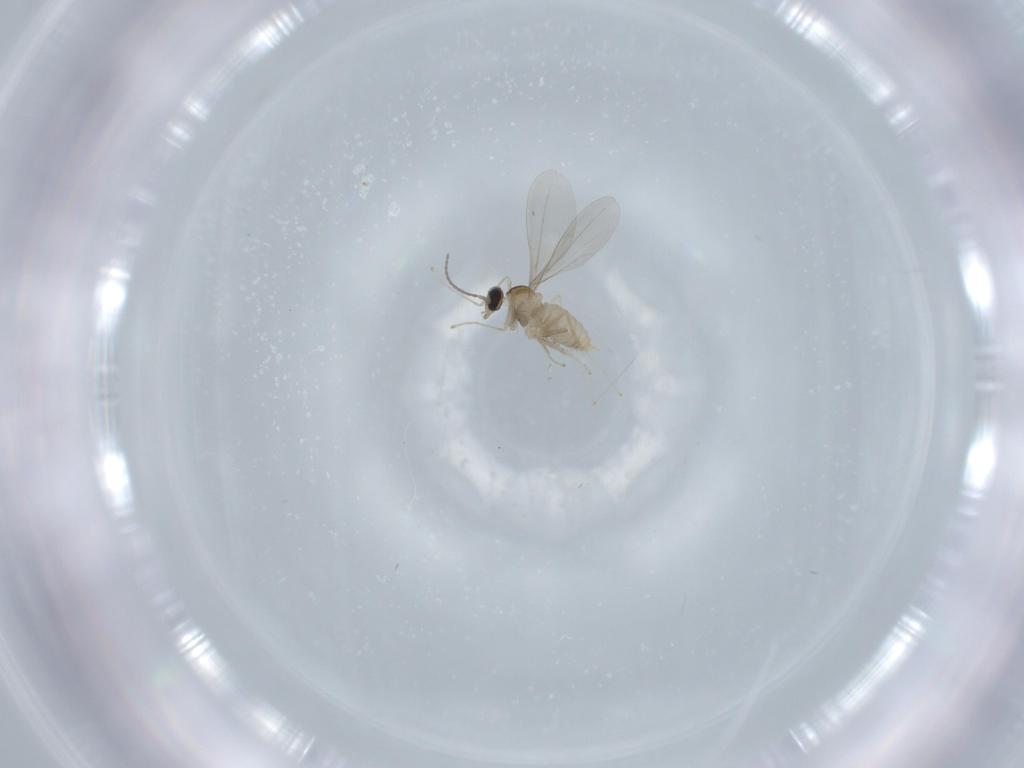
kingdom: Animalia
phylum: Arthropoda
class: Insecta
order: Diptera
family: Cecidomyiidae
